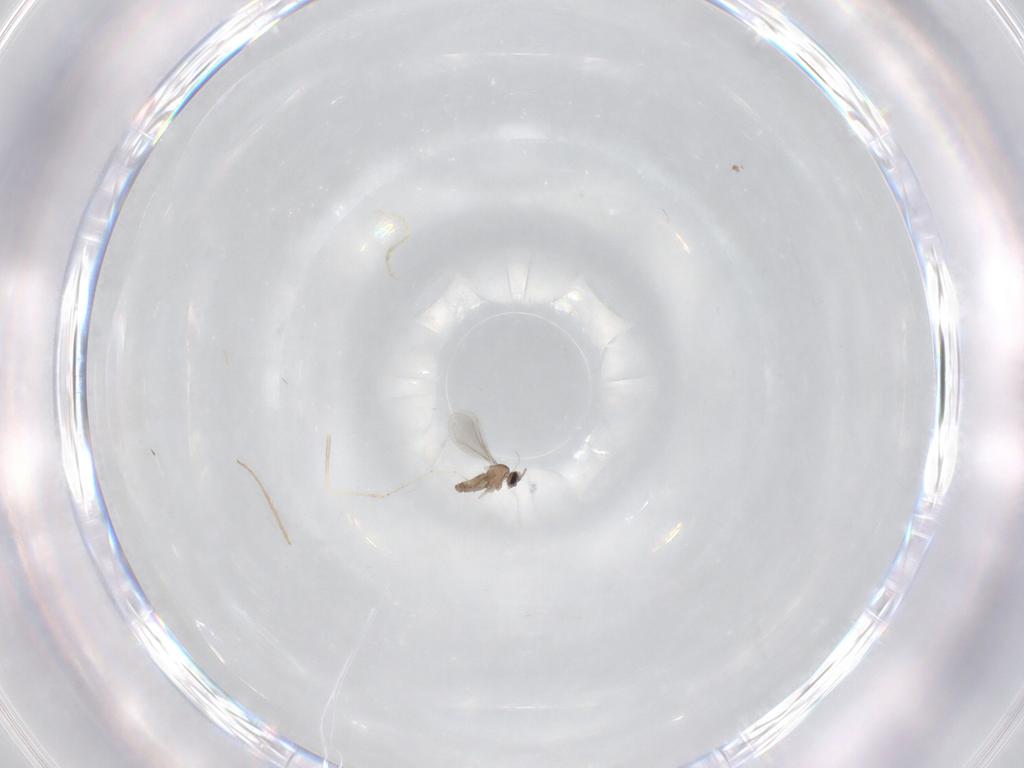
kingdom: Animalia
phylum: Arthropoda
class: Insecta
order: Diptera
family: Chironomidae
